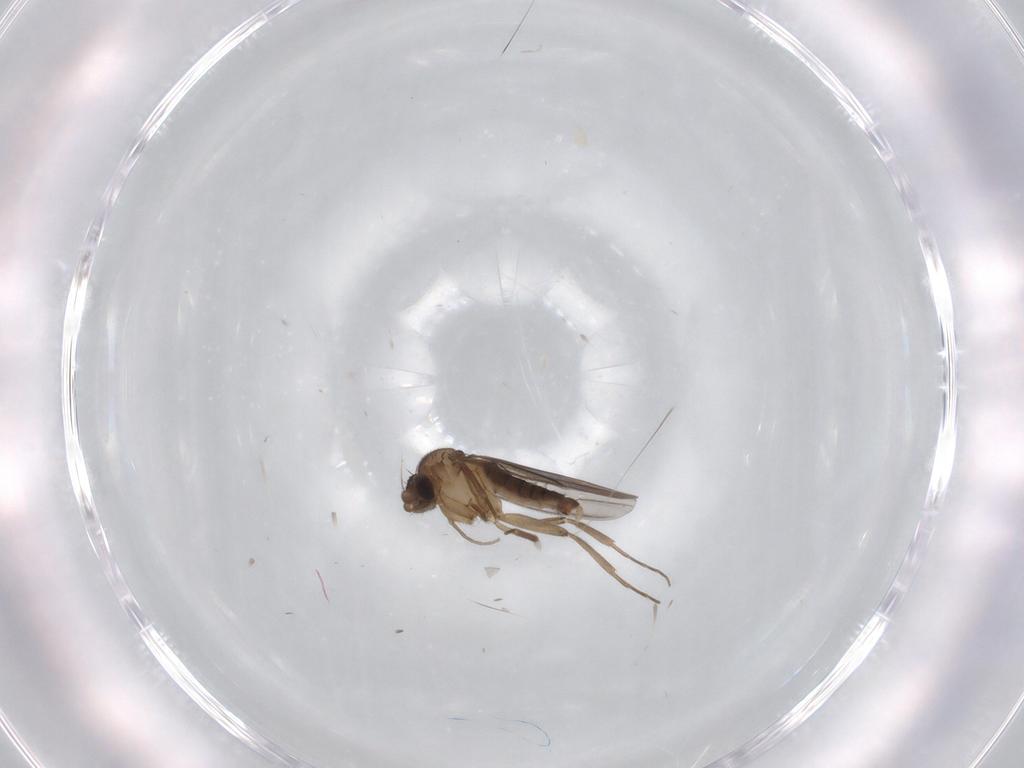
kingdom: Animalia
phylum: Arthropoda
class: Insecta
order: Diptera
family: Phoridae
